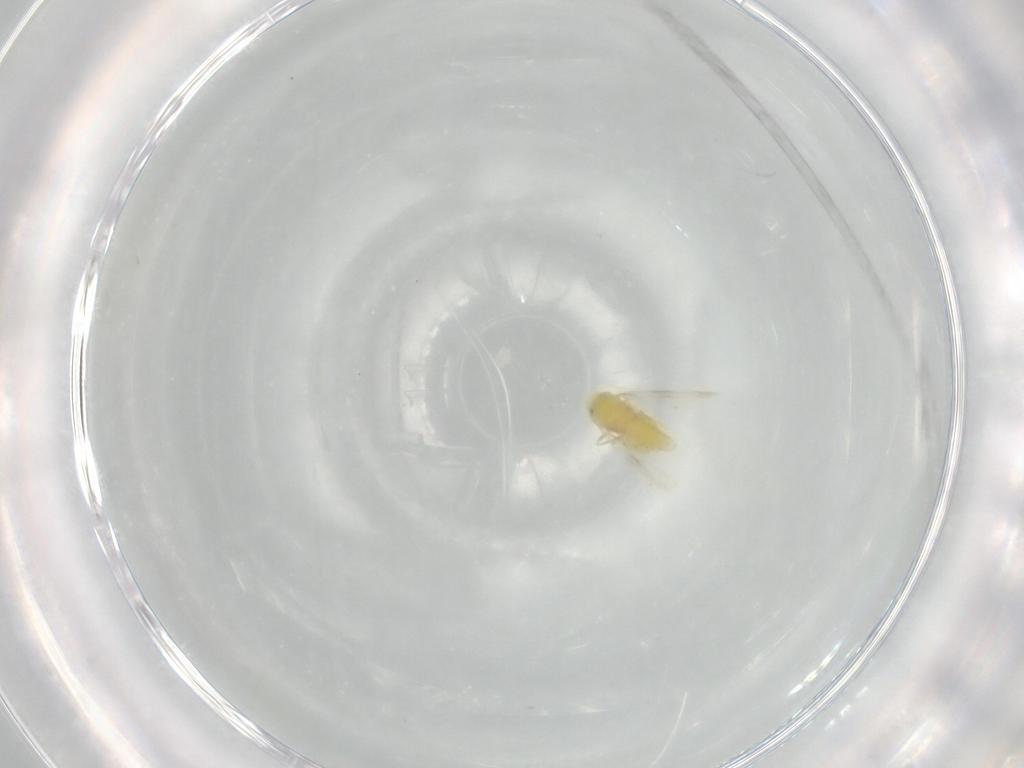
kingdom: Animalia
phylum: Arthropoda
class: Insecta
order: Hemiptera
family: Aleyrodidae
